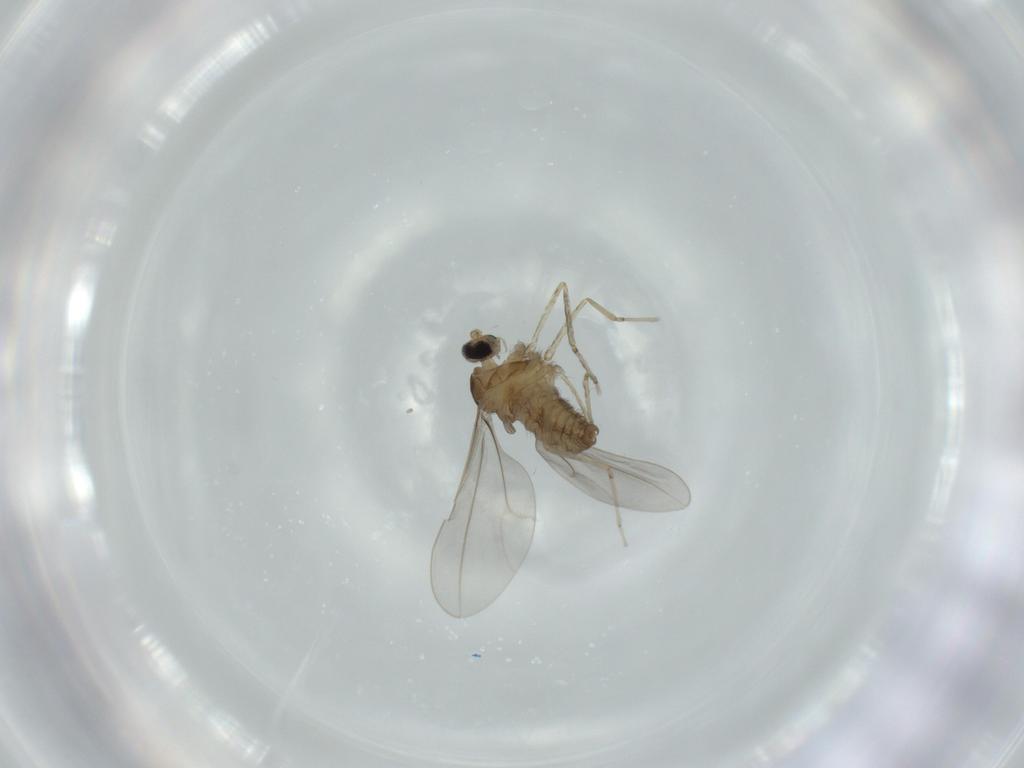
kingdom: Animalia
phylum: Arthropoda
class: Insecta
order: Diptera
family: Cecidomyiidae
